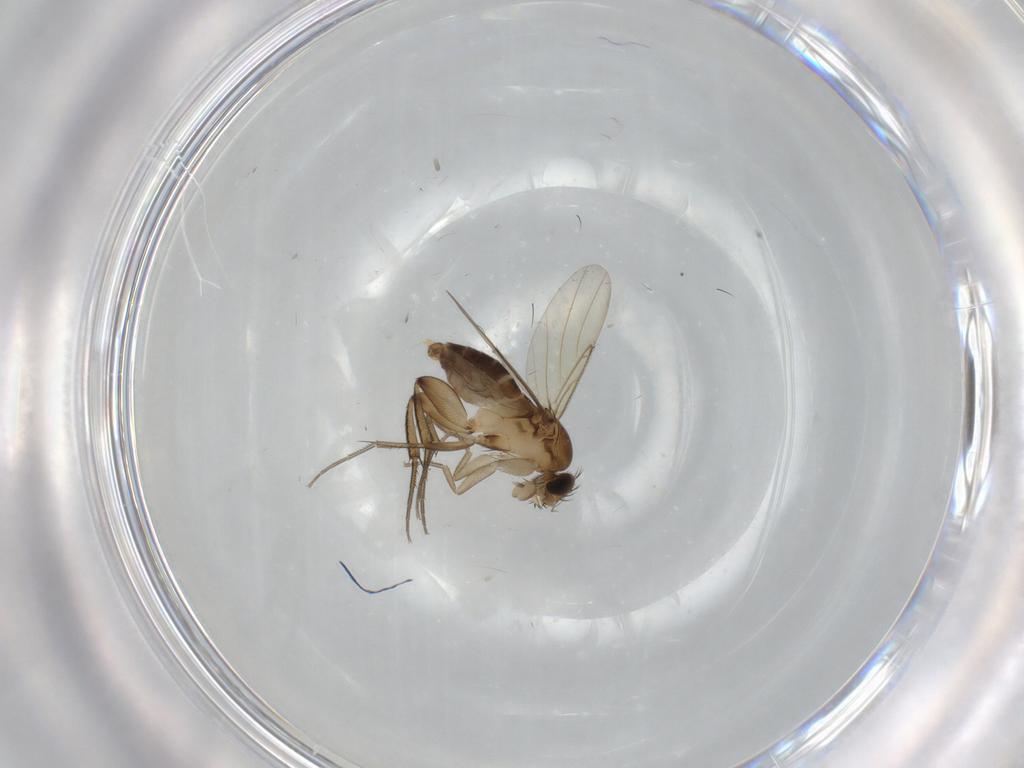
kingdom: Animalia
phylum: Arthropoda
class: Insecta
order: Diptera
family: Phoridae
